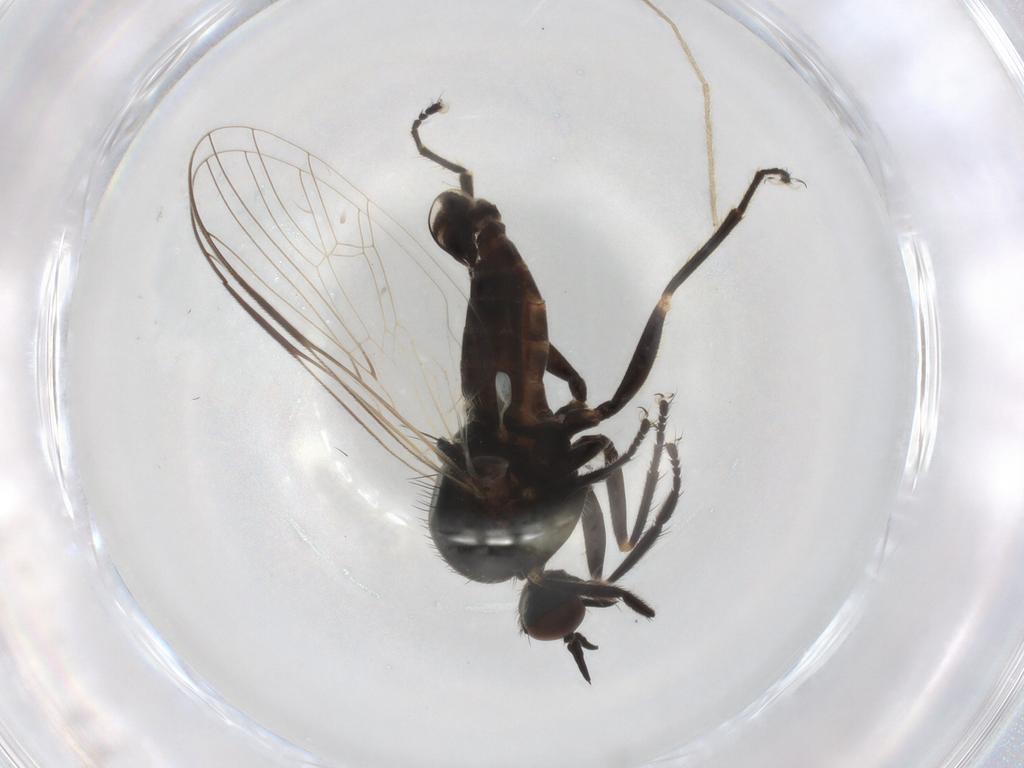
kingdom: Animalia
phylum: Arthropoda
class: Insecta
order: Diptera
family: Empididae
